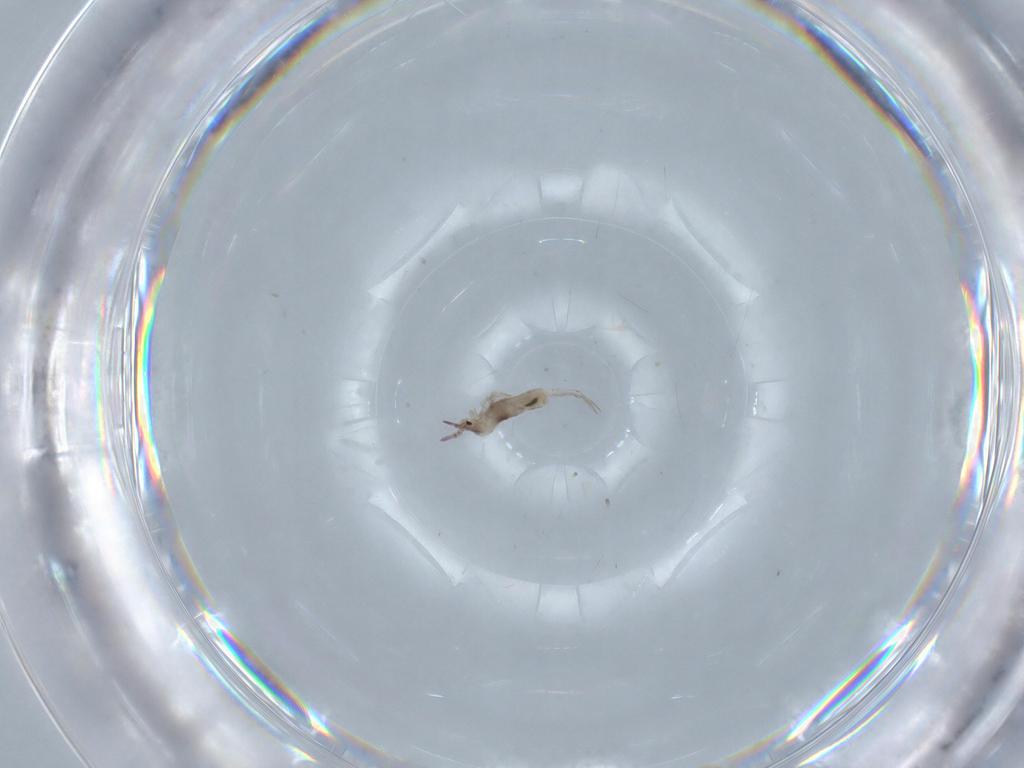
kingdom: Animalia
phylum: Arthropoda
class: Collembola
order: Entomobryomorpha
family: Entomobryidae
